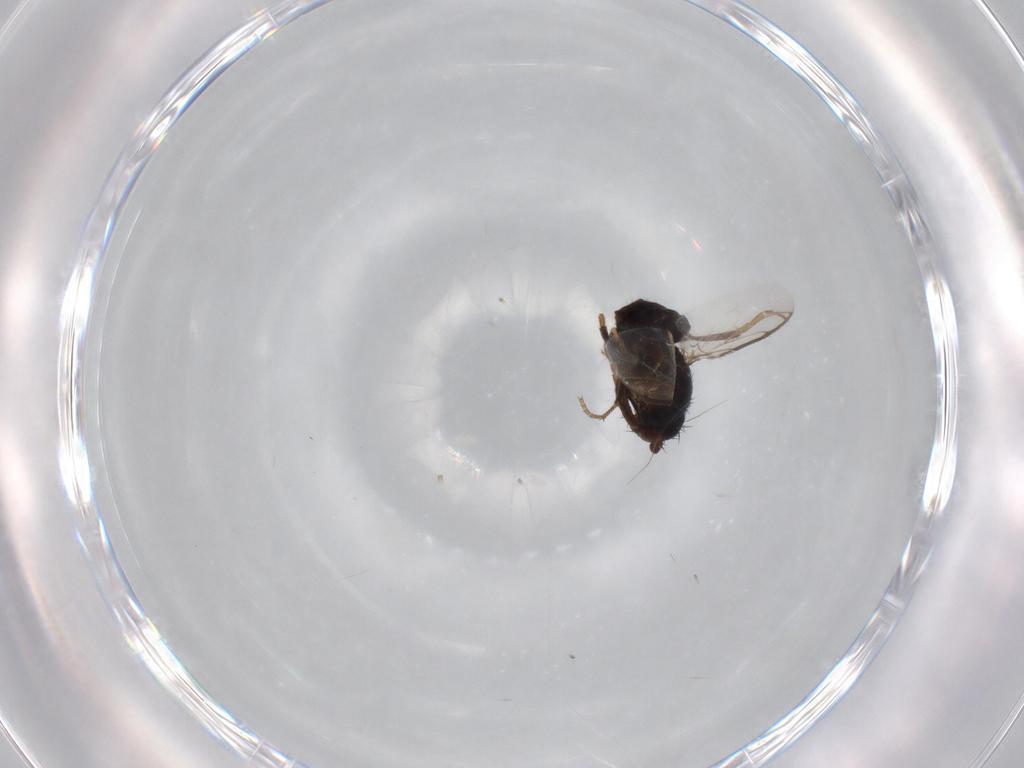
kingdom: Animalia
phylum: Arthropoda
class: Insecta
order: Diptera
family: Sphaeroceridae
